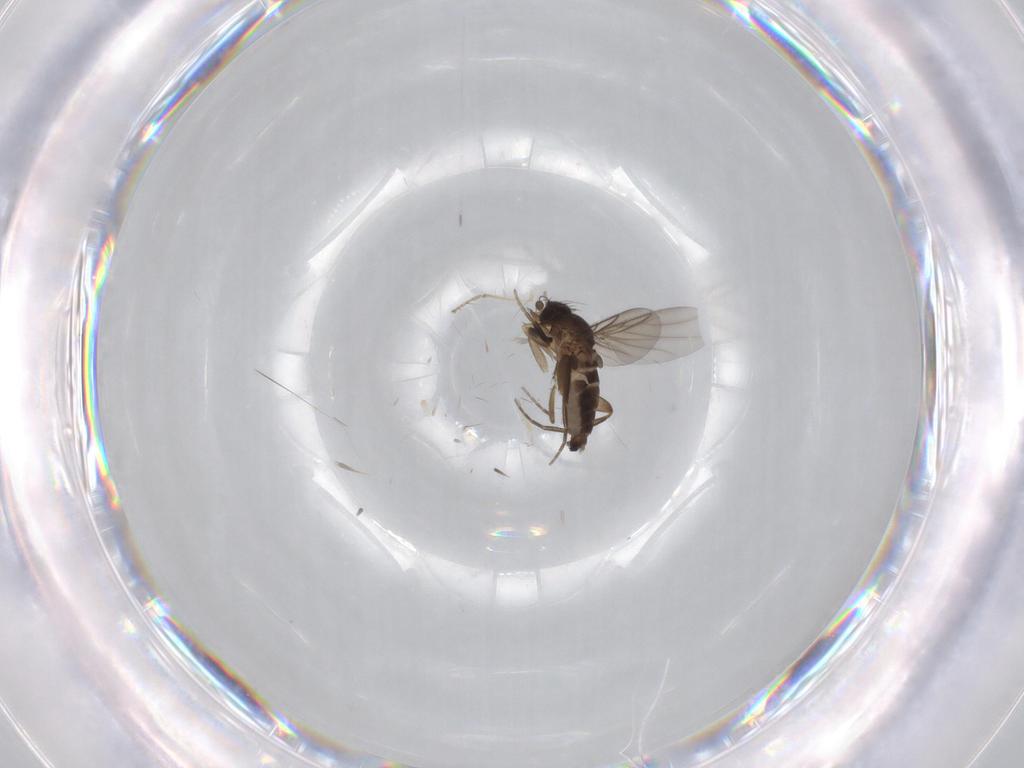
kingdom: Animalia
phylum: Arthropoda
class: Insecta
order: Diptera
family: Phoridae
